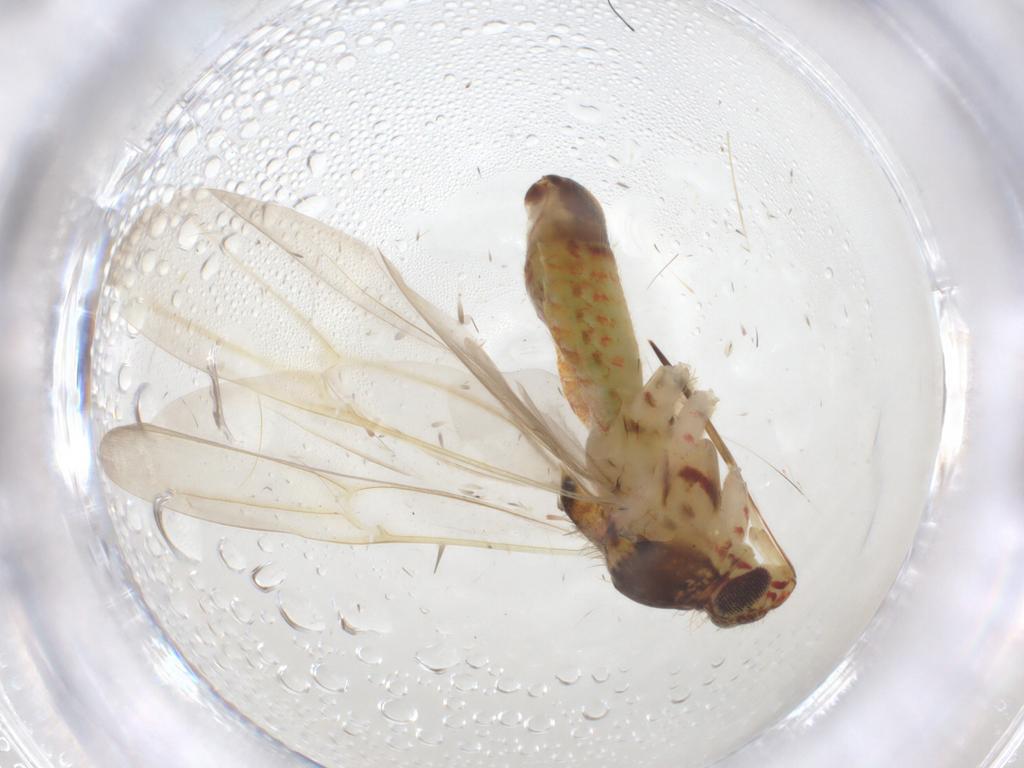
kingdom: Animalia
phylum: Arthropoda
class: Insecta
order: Hemiptera
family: Miridae
